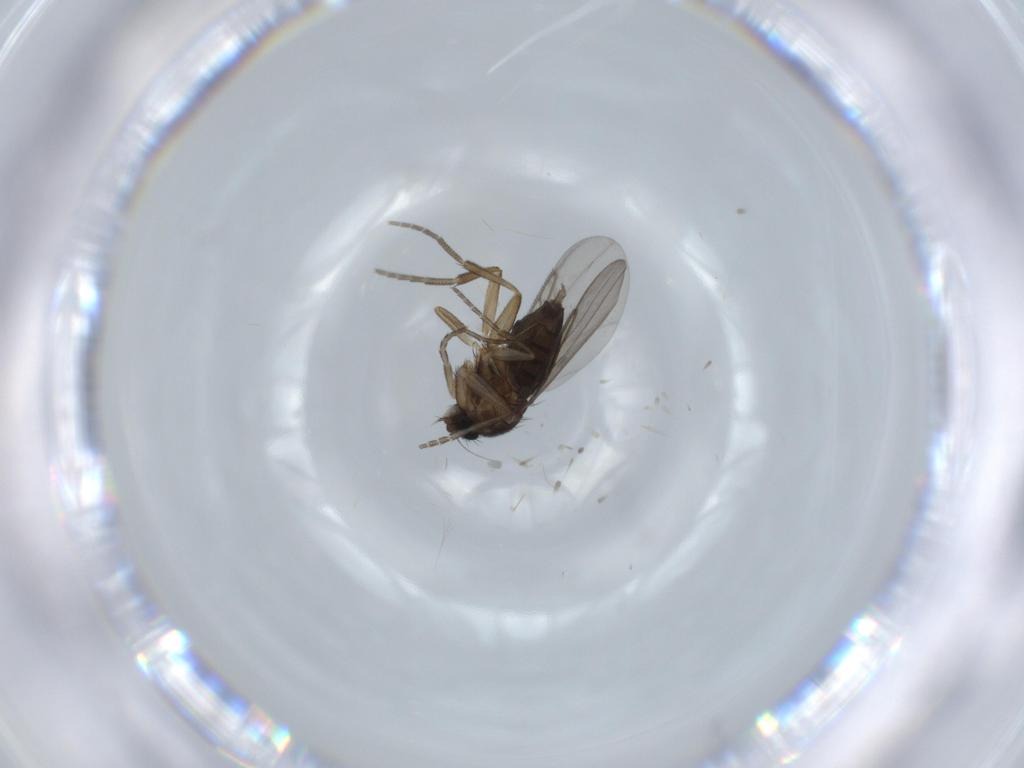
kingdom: Animalia
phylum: Arthropoda
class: Insecta
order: Diptera
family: Phoridae
